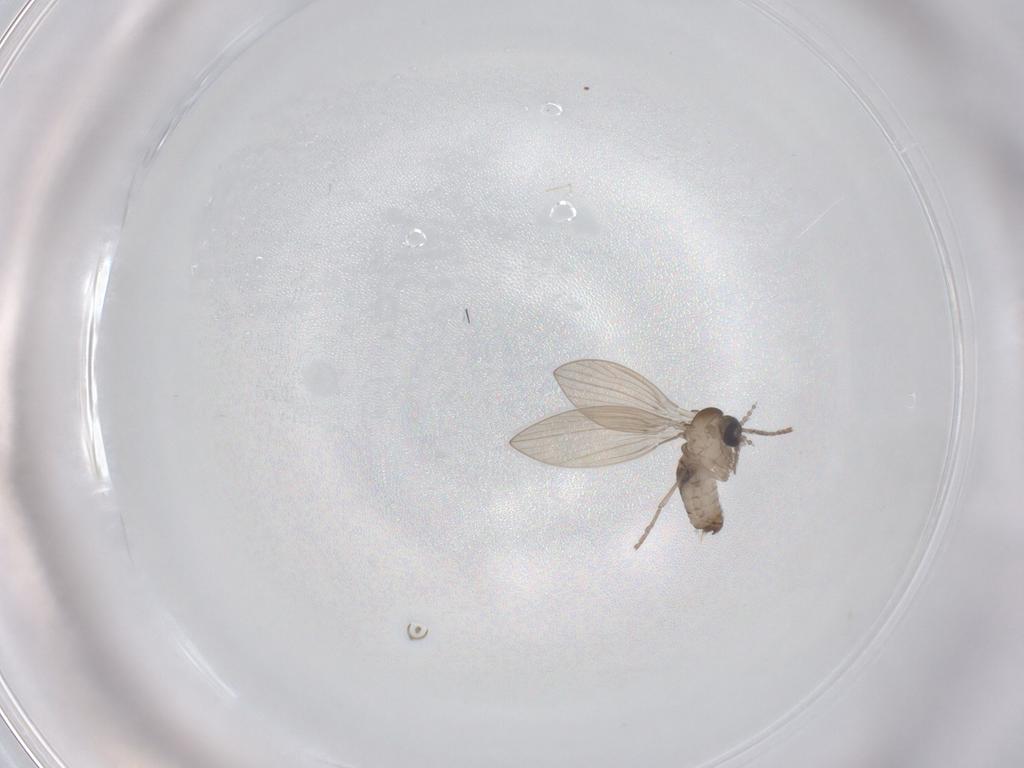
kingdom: Animalia
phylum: Arthropoda
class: Insecta
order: Diptera
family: Psychodidae
